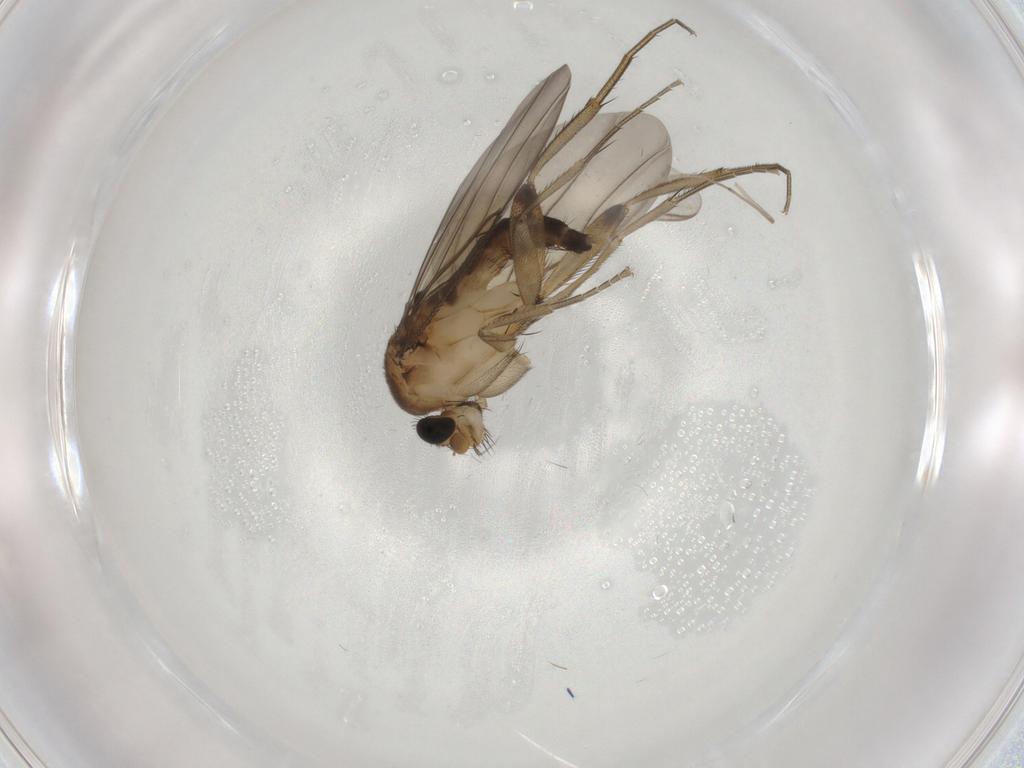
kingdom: Animalia
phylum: Arthropoda
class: Insecta
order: Diptera
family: Phoridae
